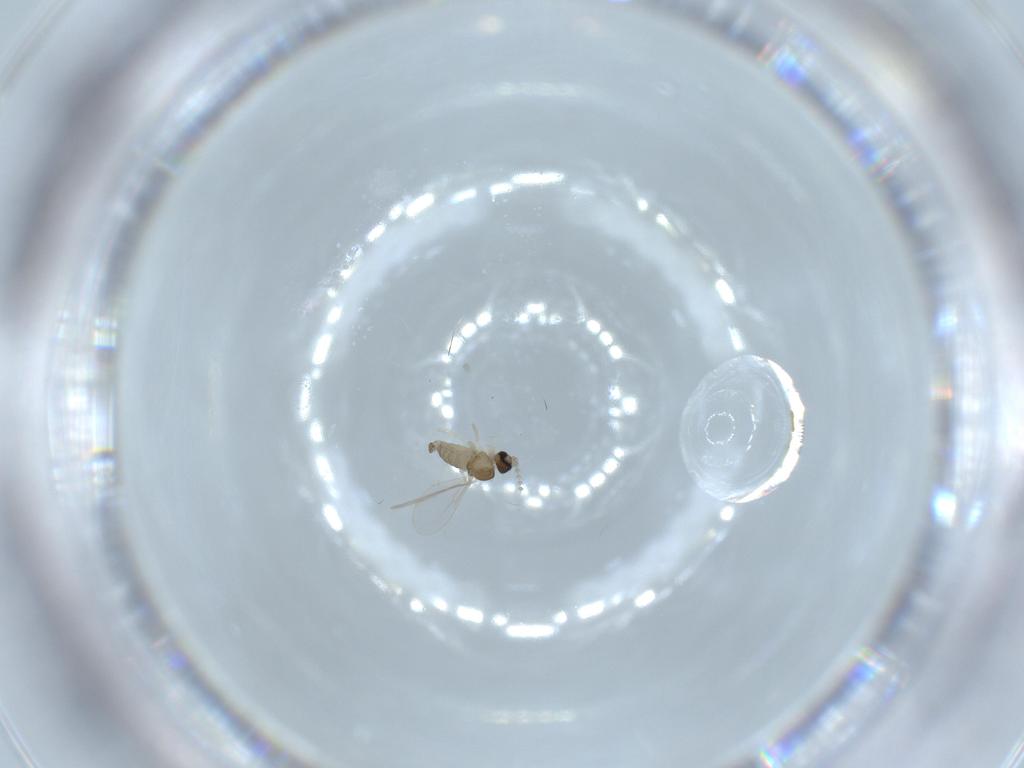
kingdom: Animalia
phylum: Arthropoda
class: Insecta
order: Diptera
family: Cecidomyiidae
